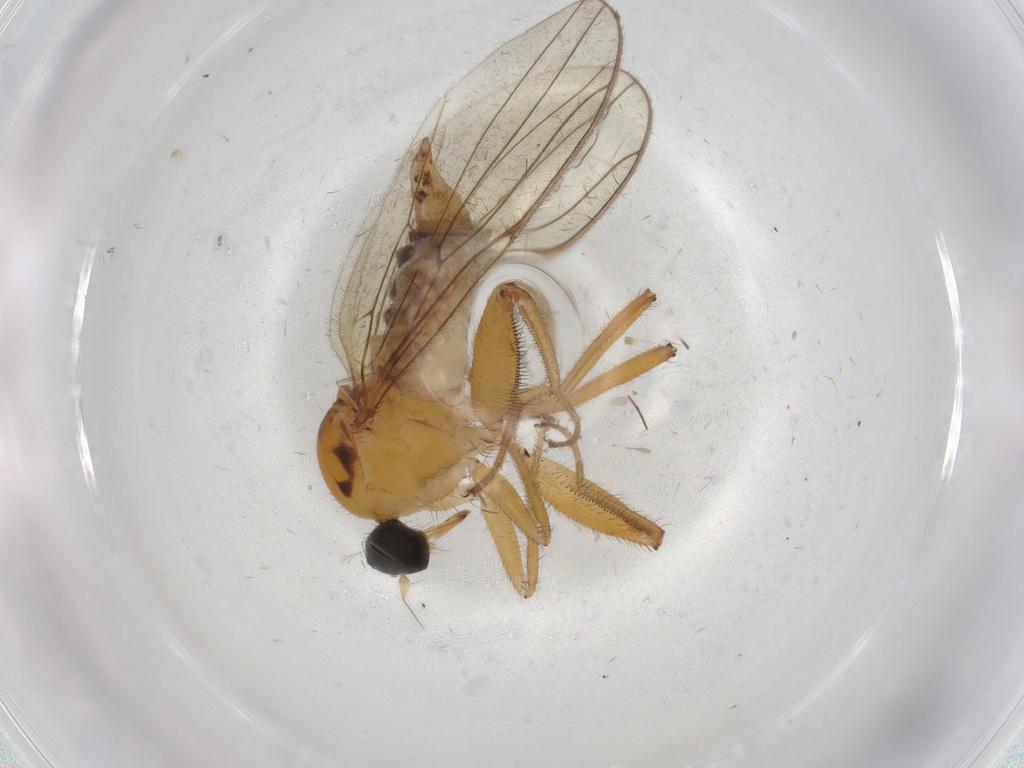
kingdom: Animalia
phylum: Arthropoda
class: Insecta
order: Diptera
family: Hybotidae
